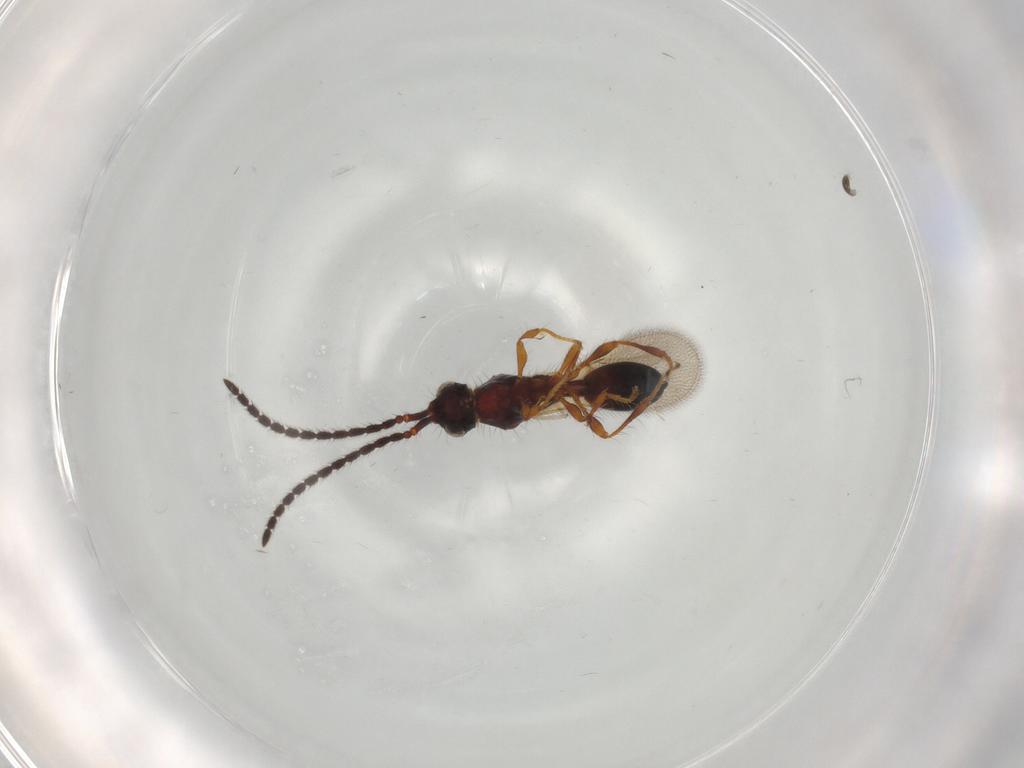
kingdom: Animalia
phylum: Arthropoda
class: Insecta
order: Hymenoptera
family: Diapriidae
